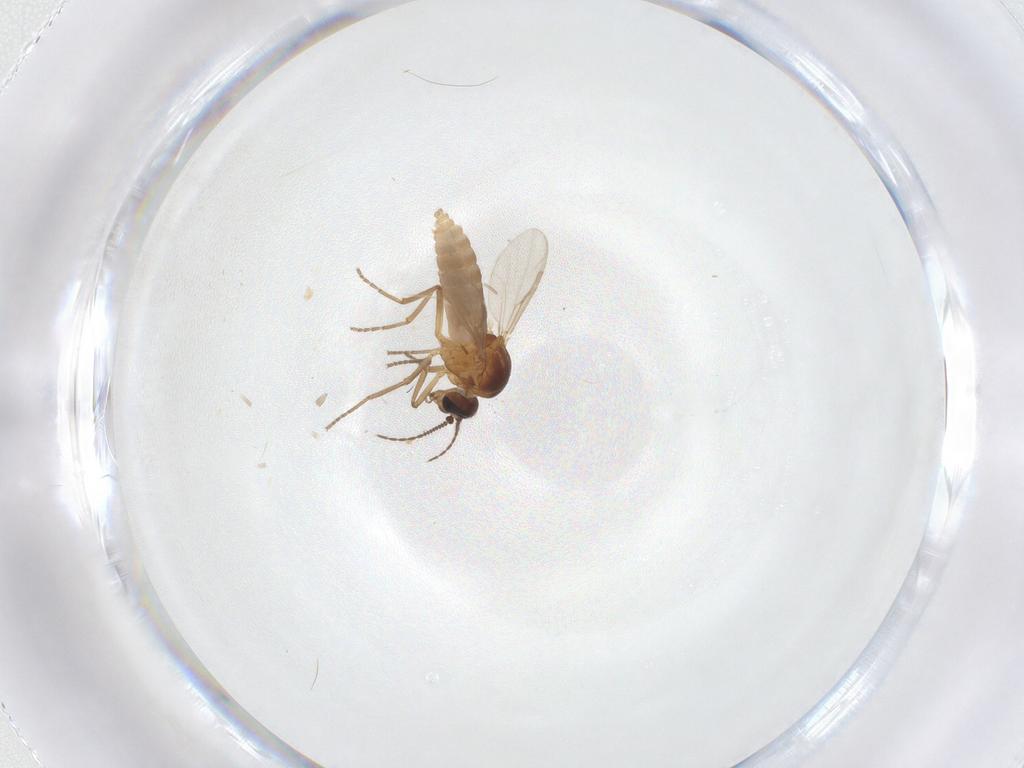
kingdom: Animalia
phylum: Arthropoda
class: Insecta
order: Diptera
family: Ceratopogonidae
